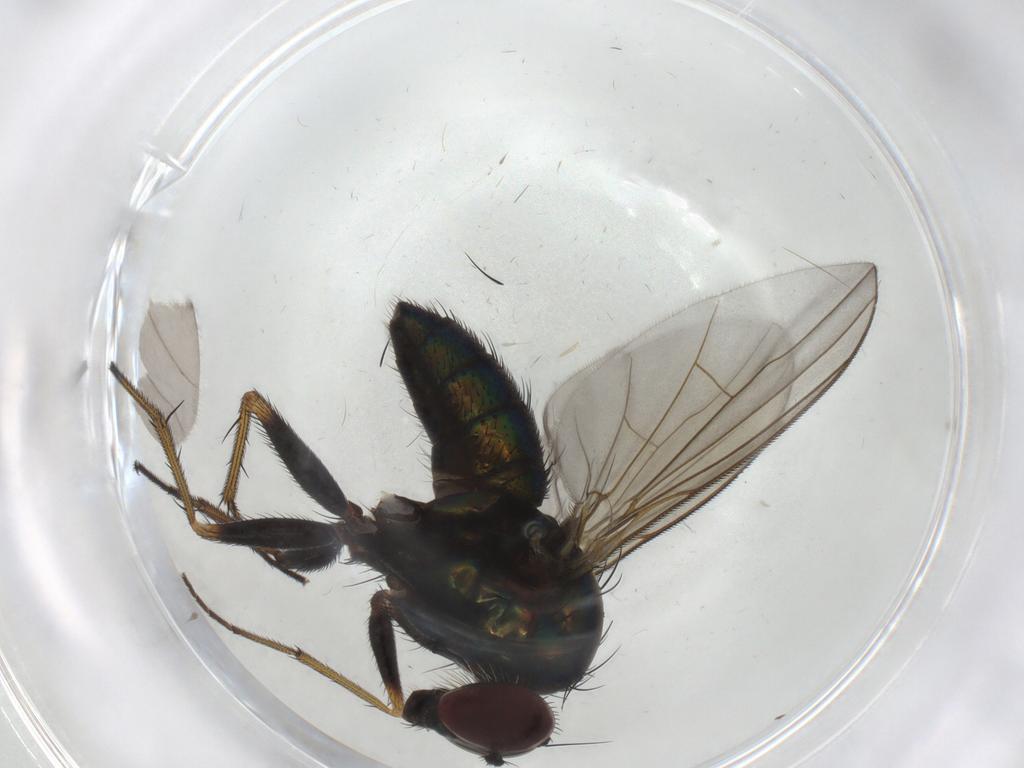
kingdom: Animalia
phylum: Arthropoda
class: Insecta
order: Diptera
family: Dolichopodidae
